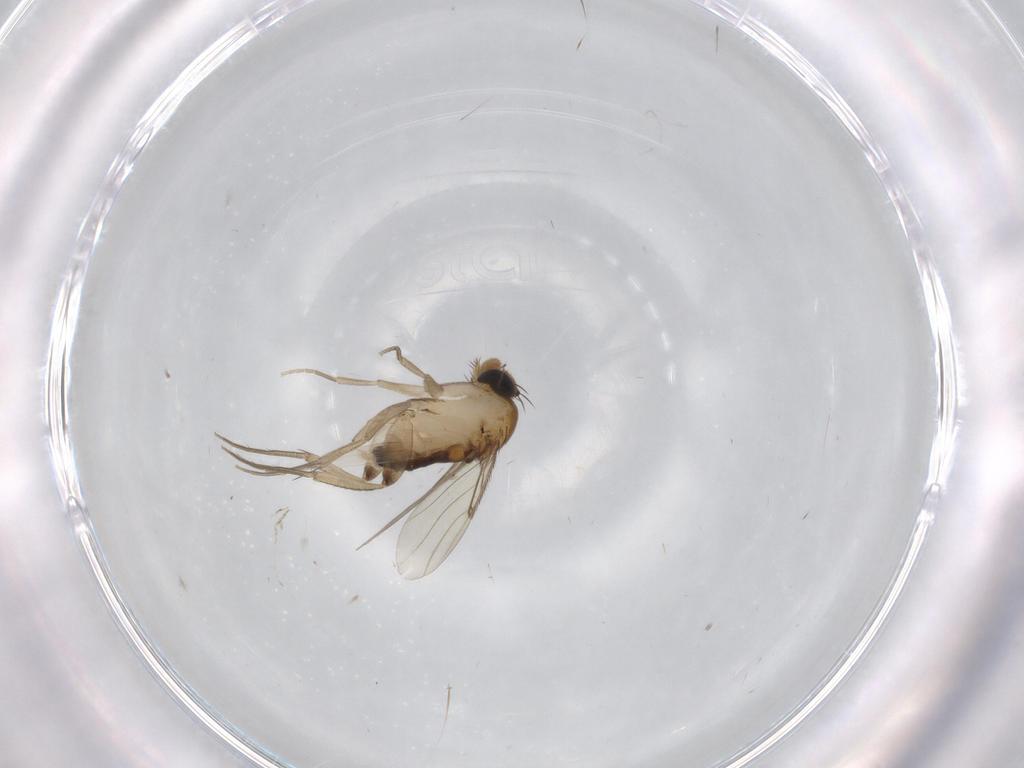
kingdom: Animalia
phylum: Arthropoda
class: Insecta
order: Diptera
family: Phoridae
